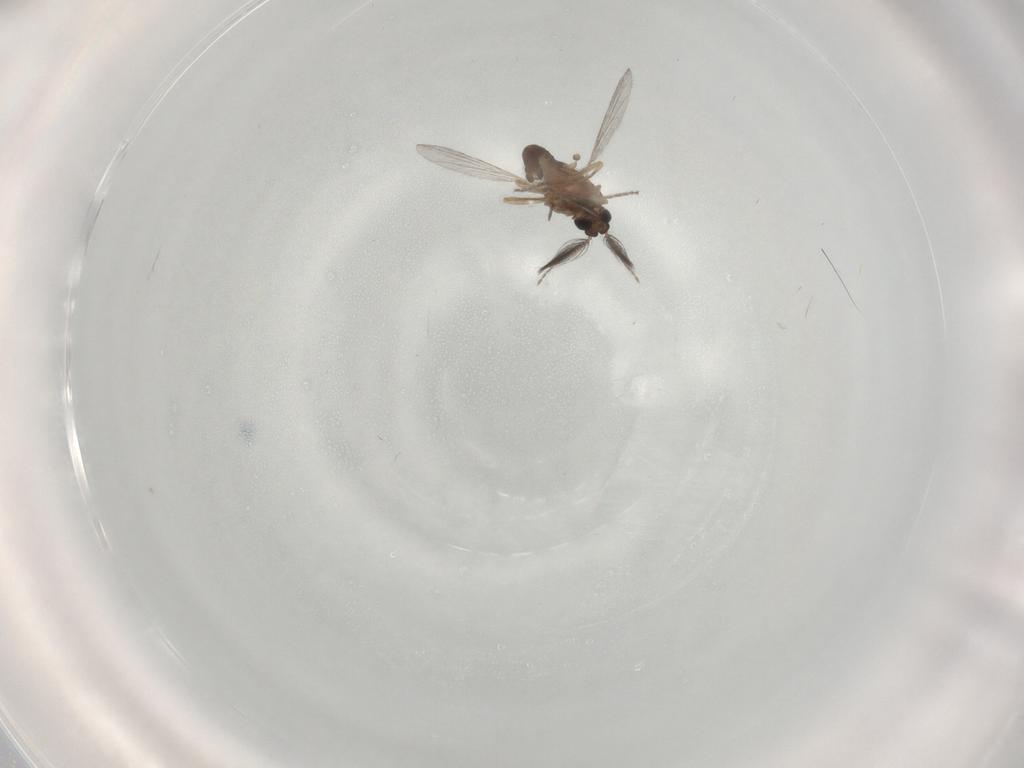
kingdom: Animalia
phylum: Arthropoda
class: Insecta
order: Diptera
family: Ceratopogonidae
